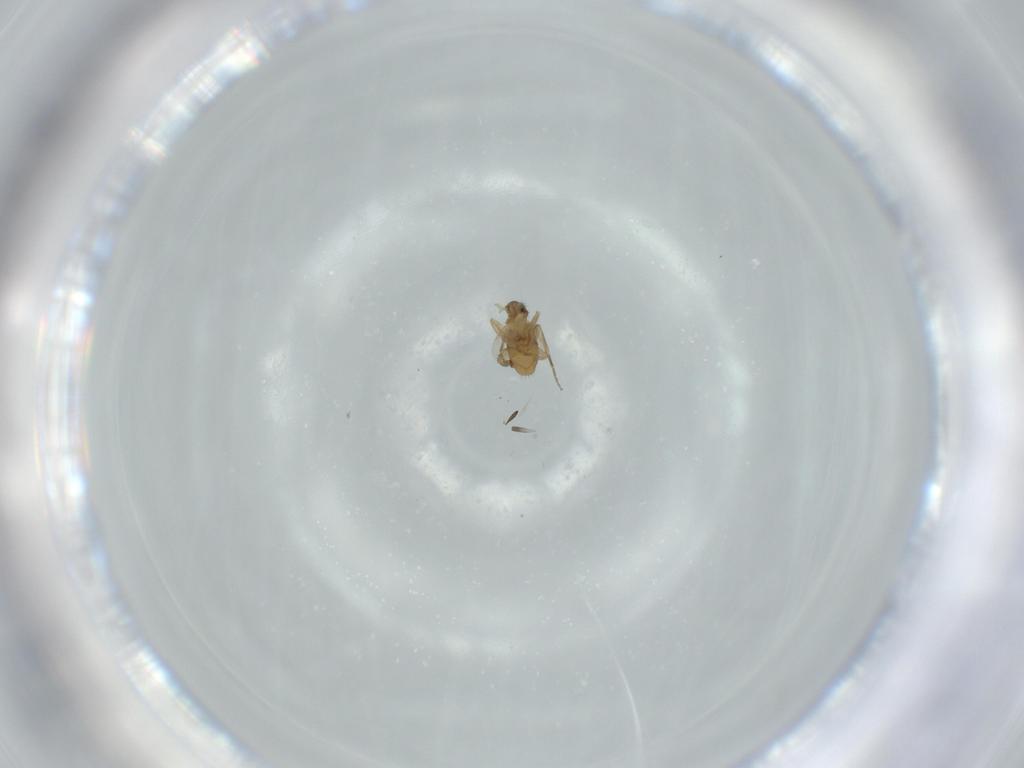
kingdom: Animalia
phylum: Arthropoda
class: Insecta
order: Diptera
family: Phoridae
